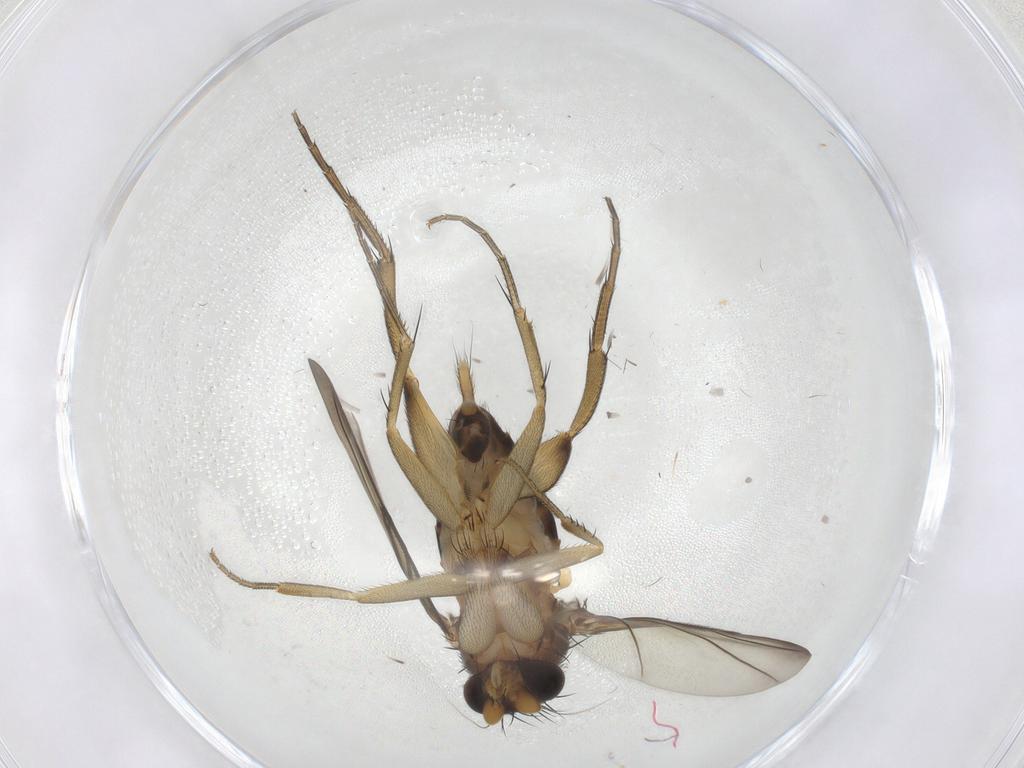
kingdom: Animalia
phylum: Arthropoda
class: Insecta
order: Diptera
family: Phoridae
